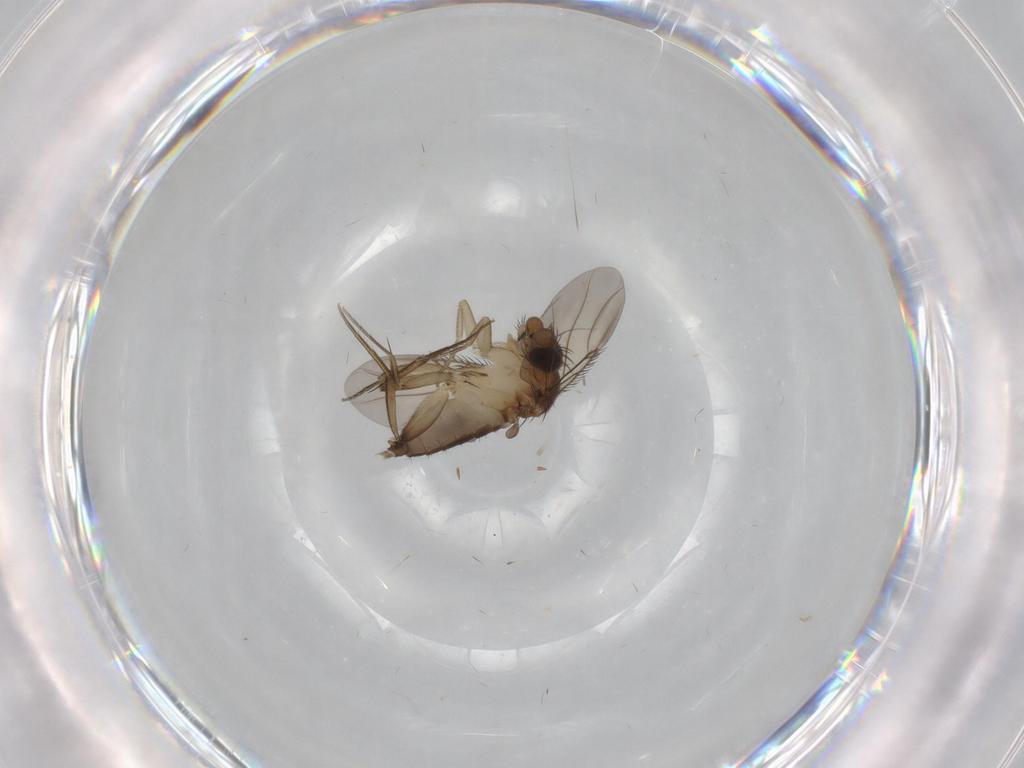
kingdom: Animalia
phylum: Arthropoda
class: Insecta
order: Diptera
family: Phoridae
